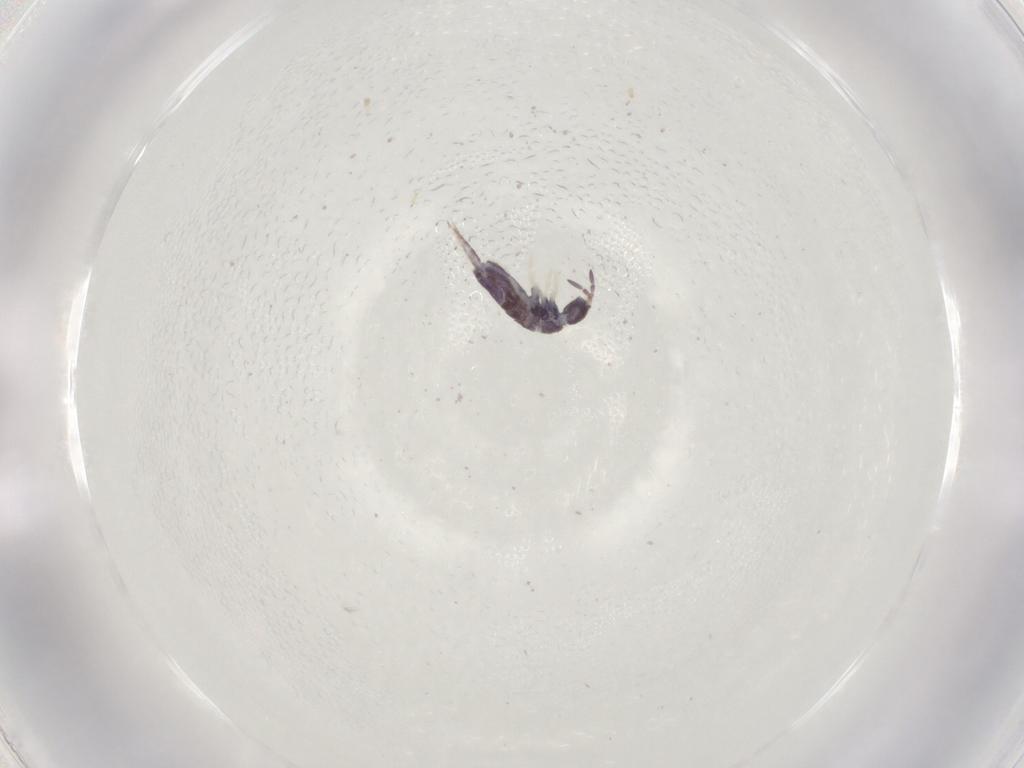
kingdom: Animalia
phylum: Arthropoda
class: Collembola
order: Entomobryomorpha
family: Entomobryidae
